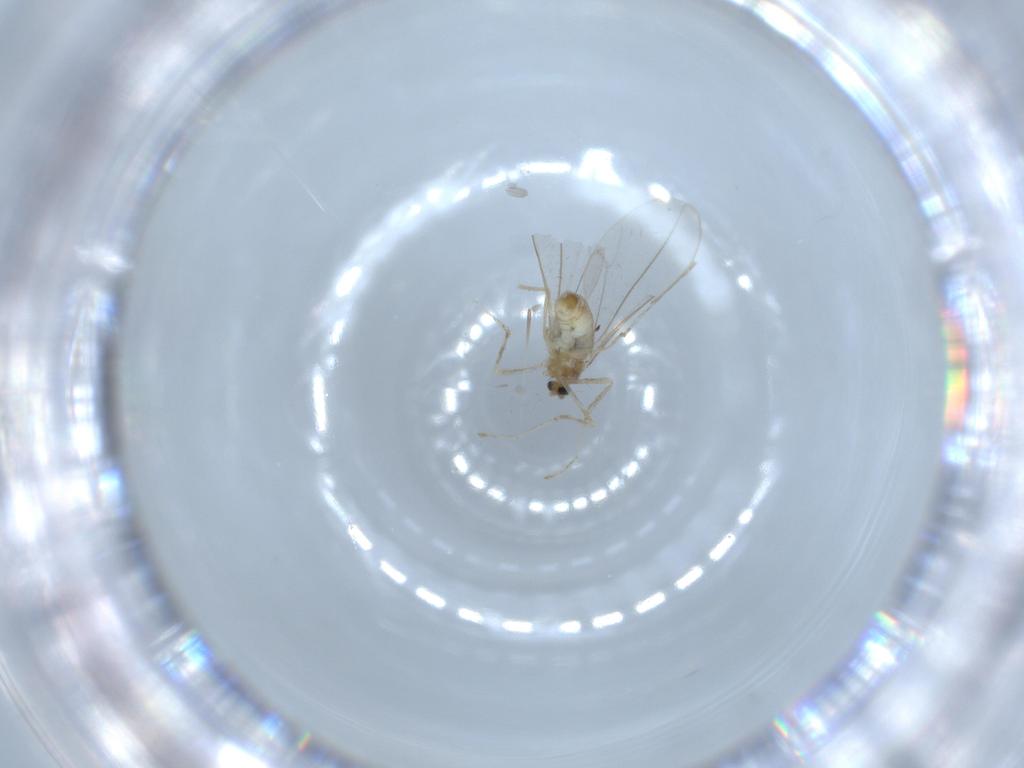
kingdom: Animalia
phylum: Arthropoda
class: Insecta
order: Diptera
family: Cecidomyiidae
